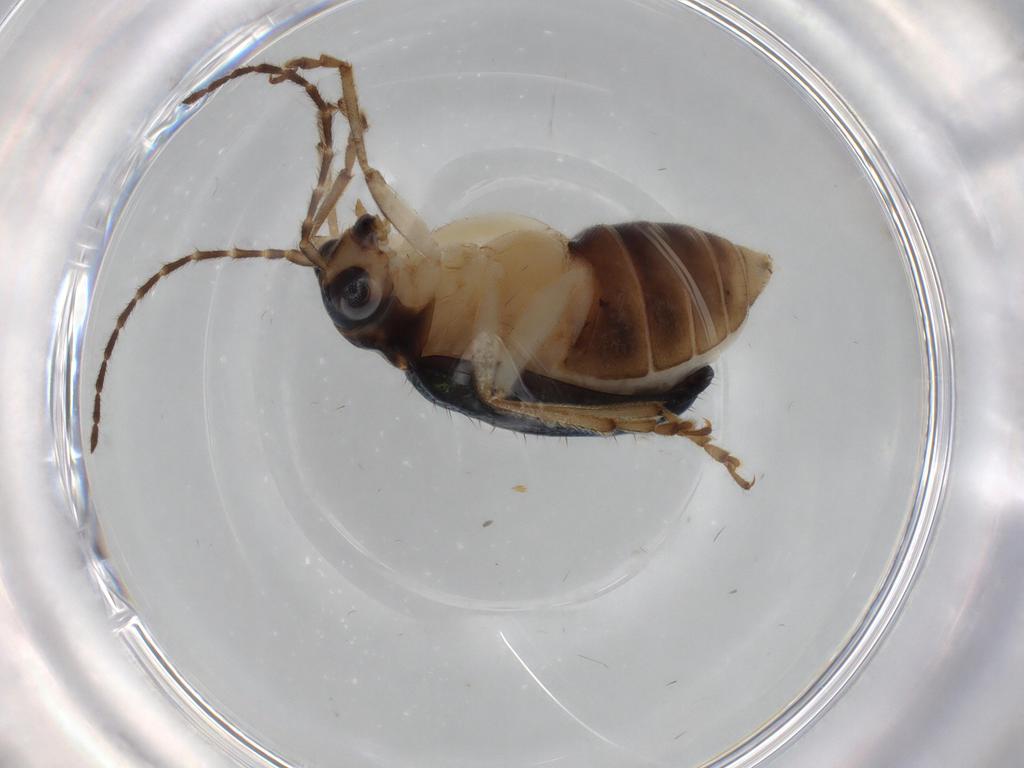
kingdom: Animalia
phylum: Arthropoda
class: Insecta
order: Coleoptera
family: Chrysomelidae
